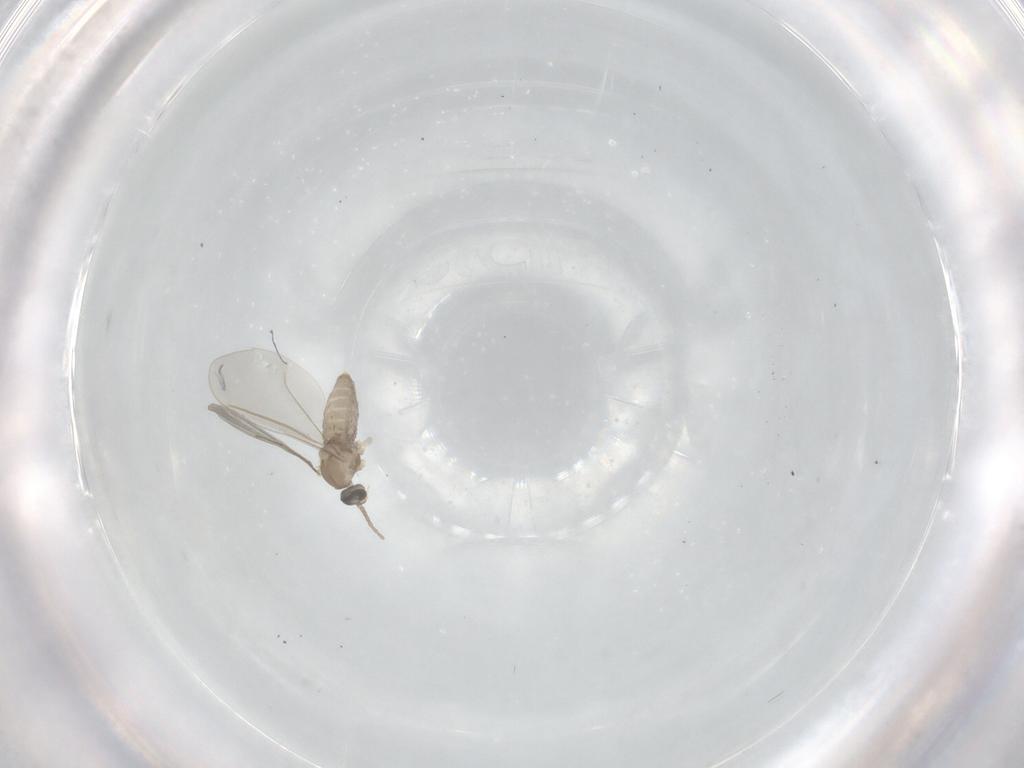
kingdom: Animalia
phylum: Arthropoda
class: Insecta
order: Diptera
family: Ceratopogonidae
